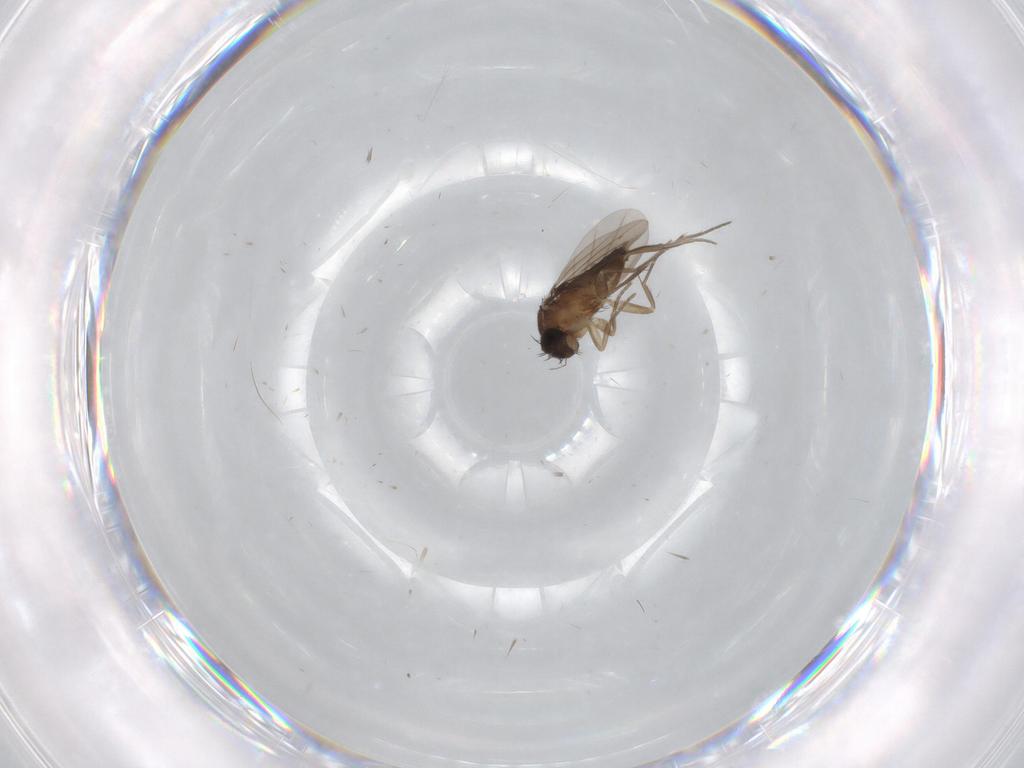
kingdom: Animalia
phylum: Arthropoda
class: Insecta
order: Diptera
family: Phoridae
